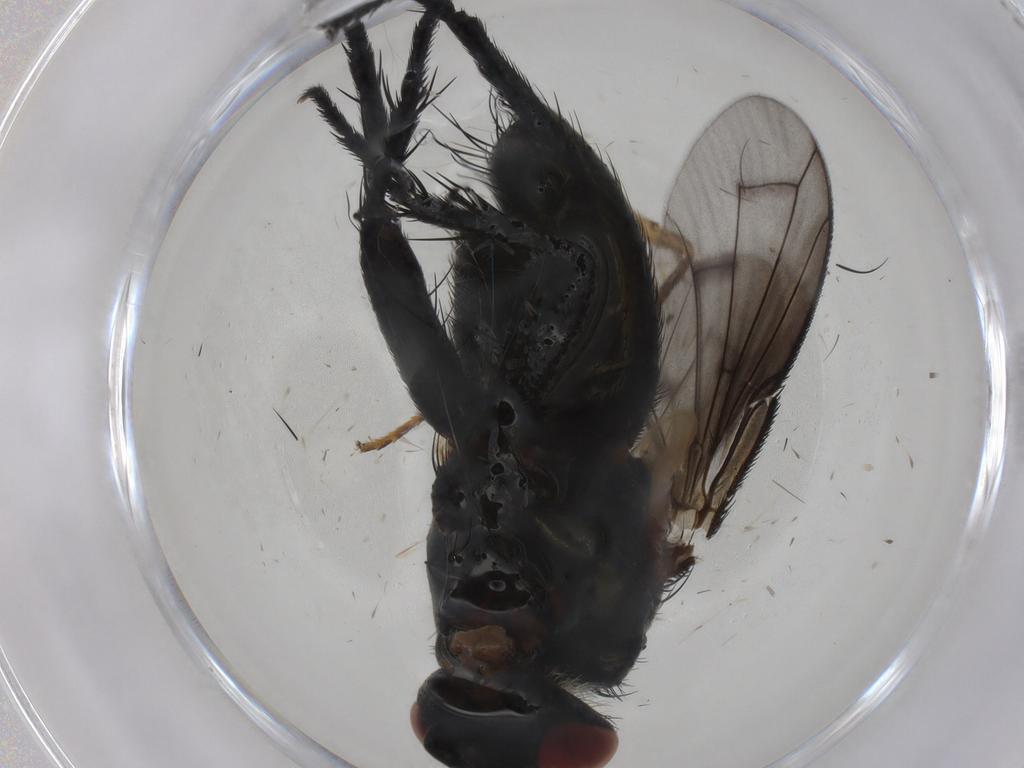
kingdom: Animalia
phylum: Arthropoda
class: Insecta
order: Diptera
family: Tachinidae
